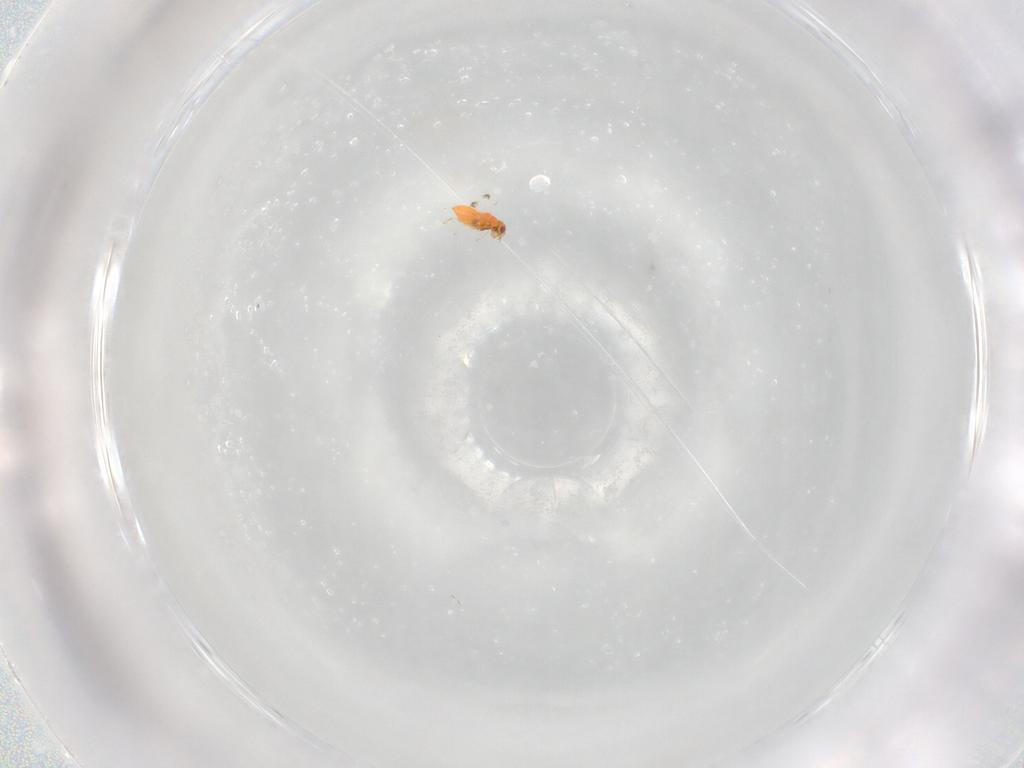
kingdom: Animalia
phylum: Arthropoda
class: Insecta
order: Hymenoptera
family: Trichogrammatidae
